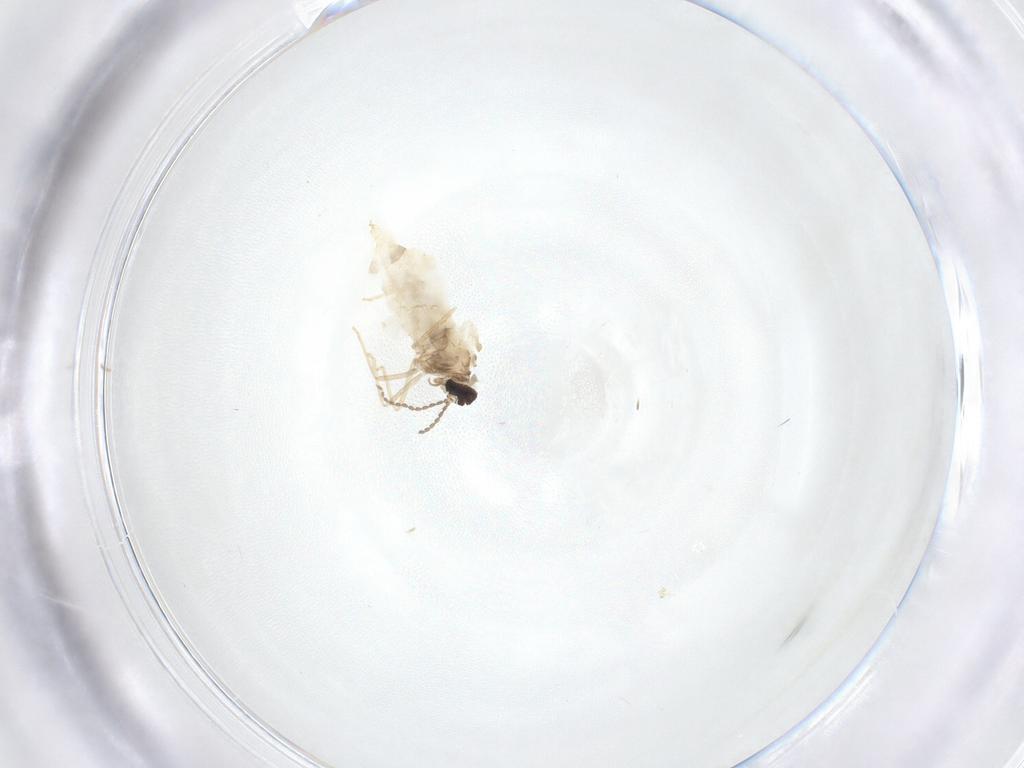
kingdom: Animalia
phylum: Arthropoda
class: Insecta
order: Diptera
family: Cecidomyiidae
